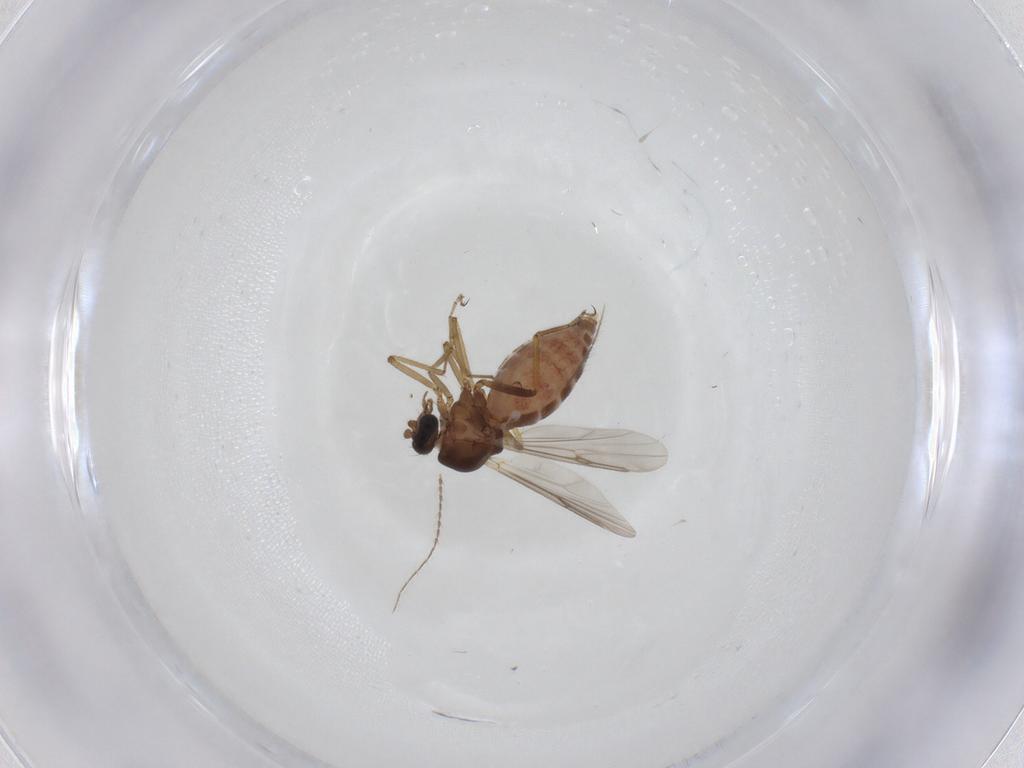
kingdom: Animalia
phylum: Arthropoda
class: Insecta
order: Diptera
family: Ceratopogonidae
